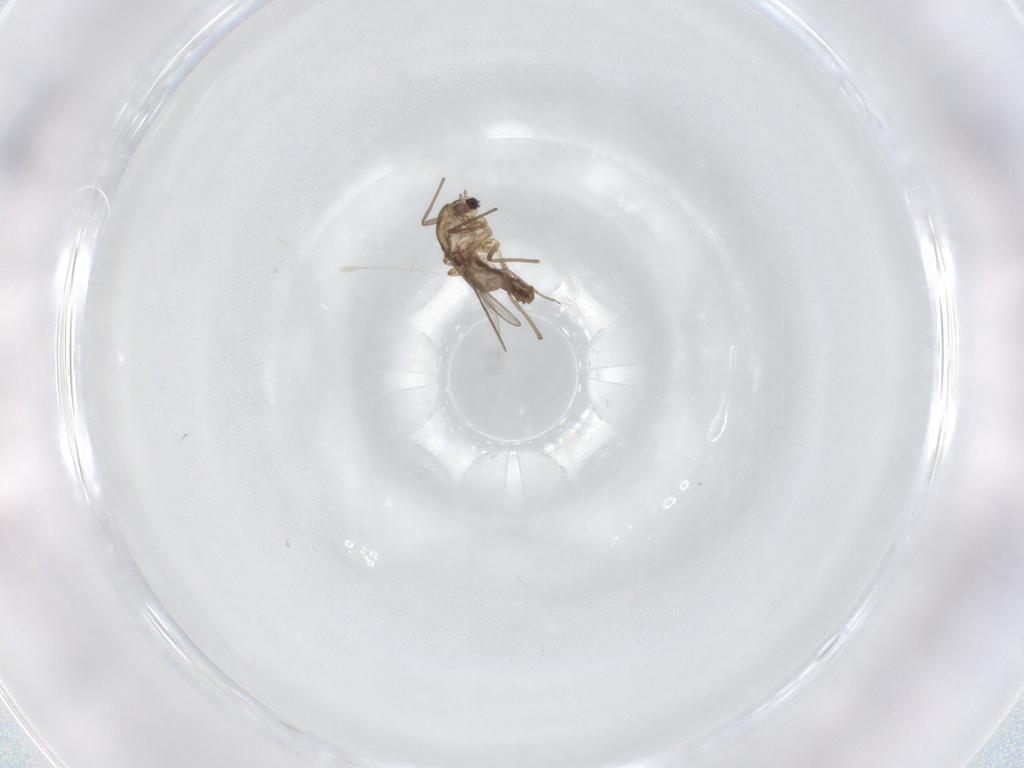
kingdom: Animalia
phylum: Arthropoda
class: Insecta
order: Diptera
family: Chironomidae
